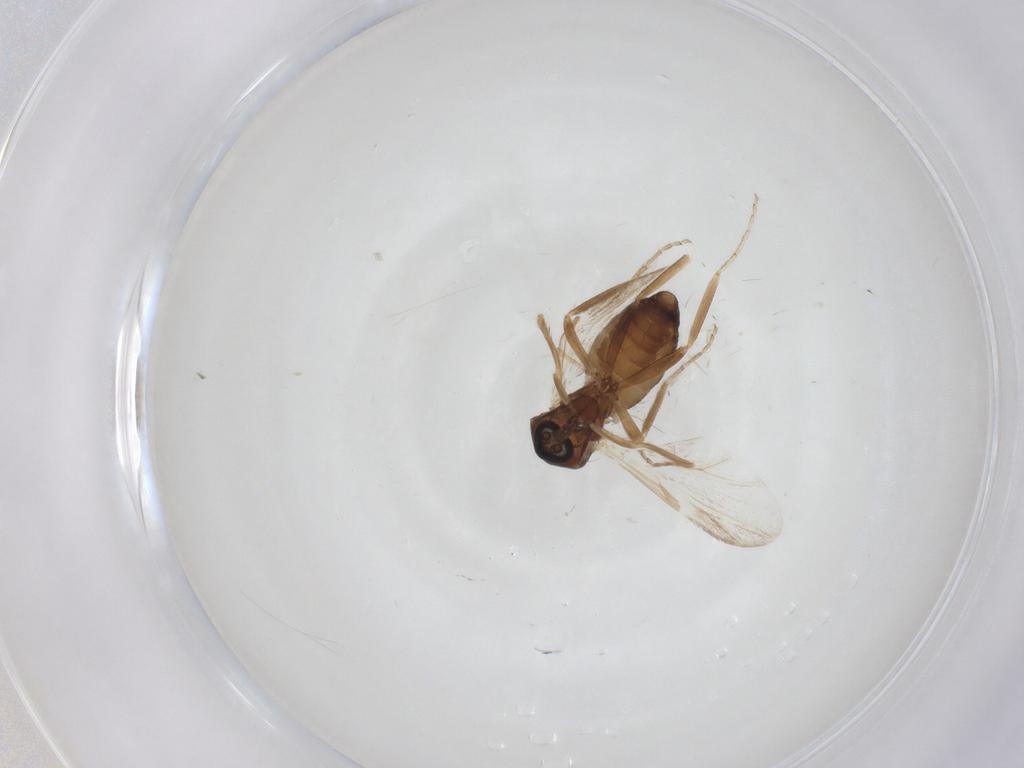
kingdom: Animalia
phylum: Arthropoda
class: Insecta
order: Diptera
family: Ceratopogonidae
